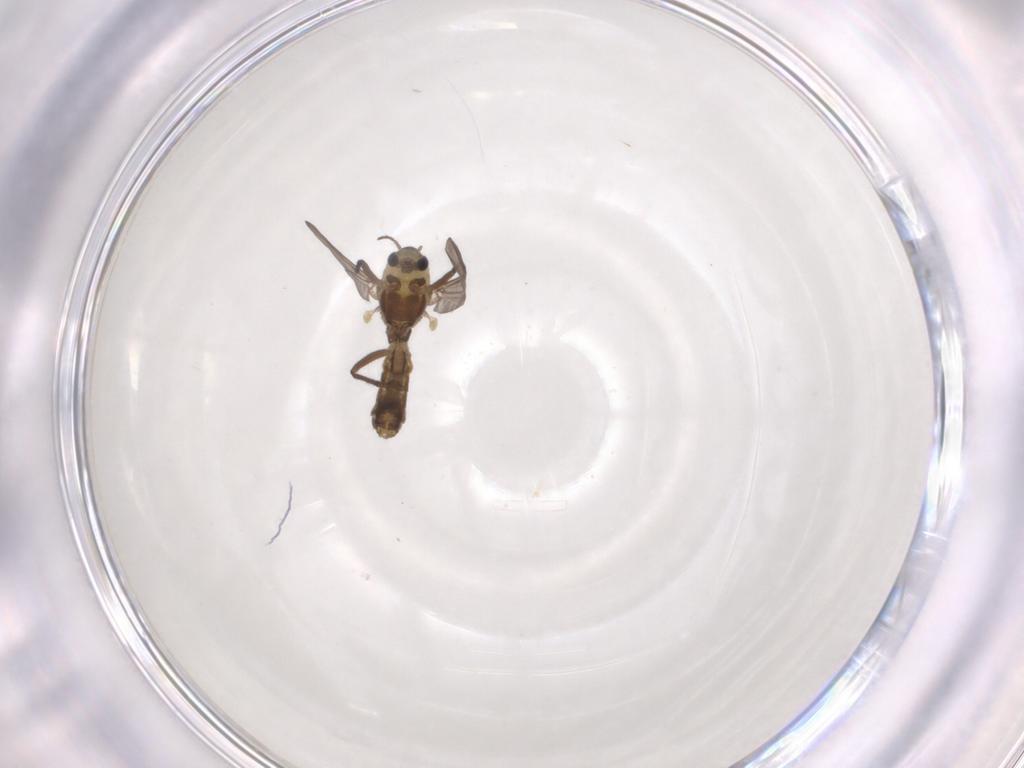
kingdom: Animalia
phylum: Arthropoda
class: Insecta
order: Diptera
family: Chironomidae
